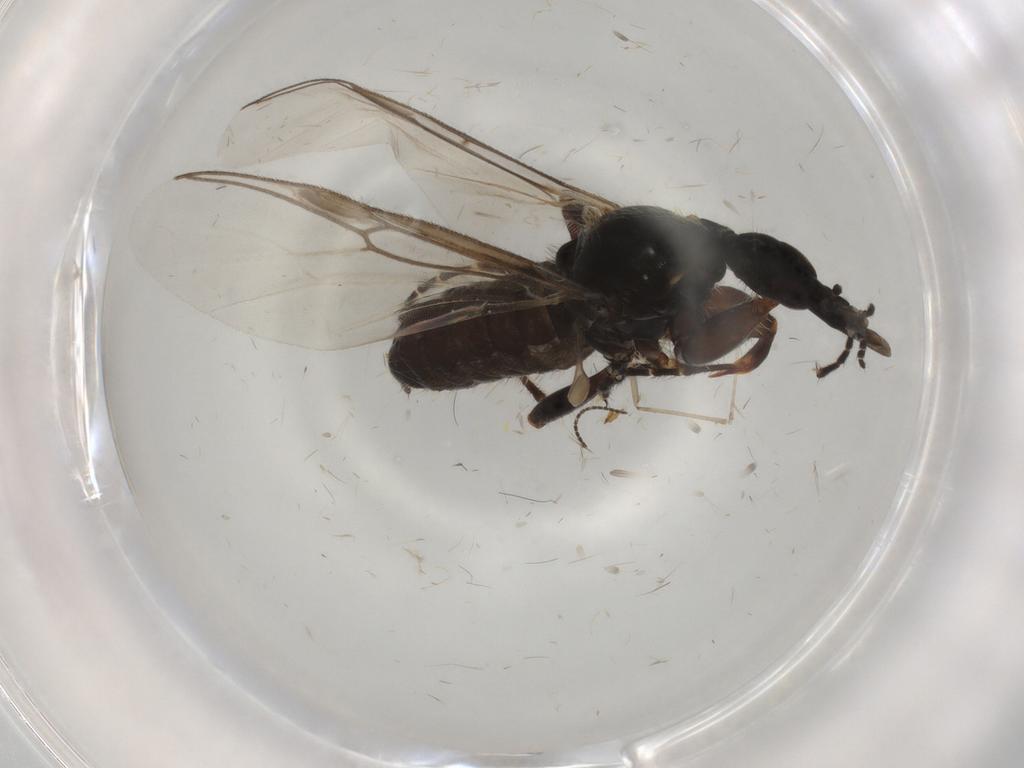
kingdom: Animalia
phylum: Arthropoda
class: Insecta
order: Diptera
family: Bibionidae
